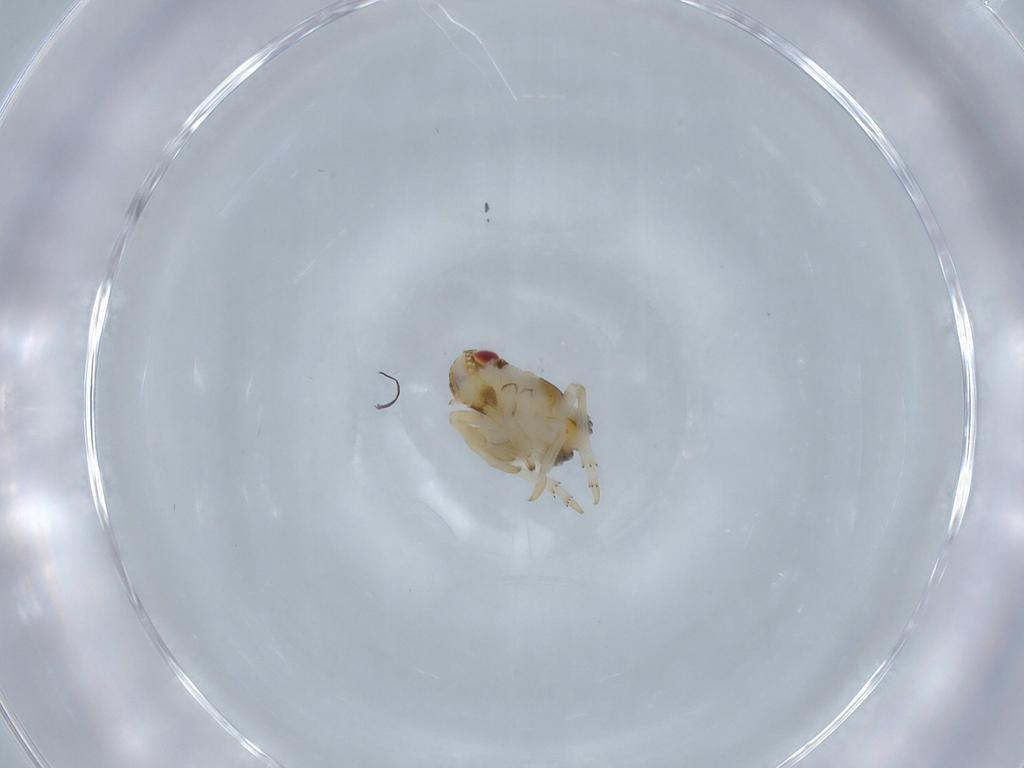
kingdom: Animalia
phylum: Arthropoda
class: Insecta
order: Hemiptera
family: Issidae
